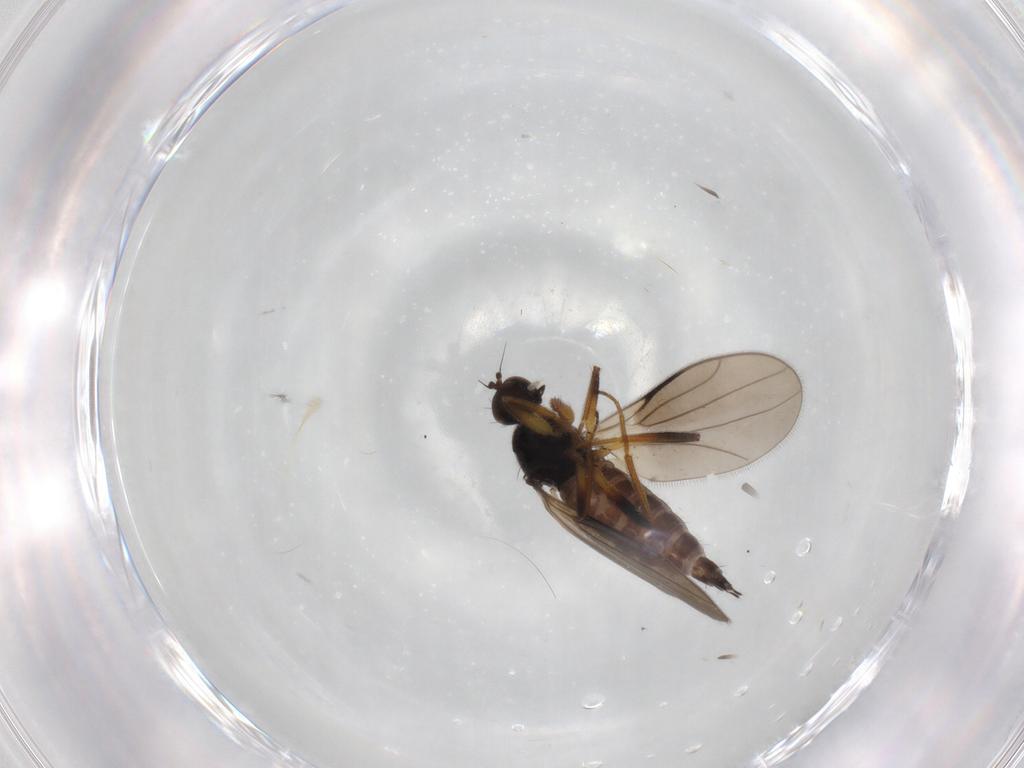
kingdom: Animalia
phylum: Arthropoda
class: Insecta
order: Diptera
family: Hybotidae
